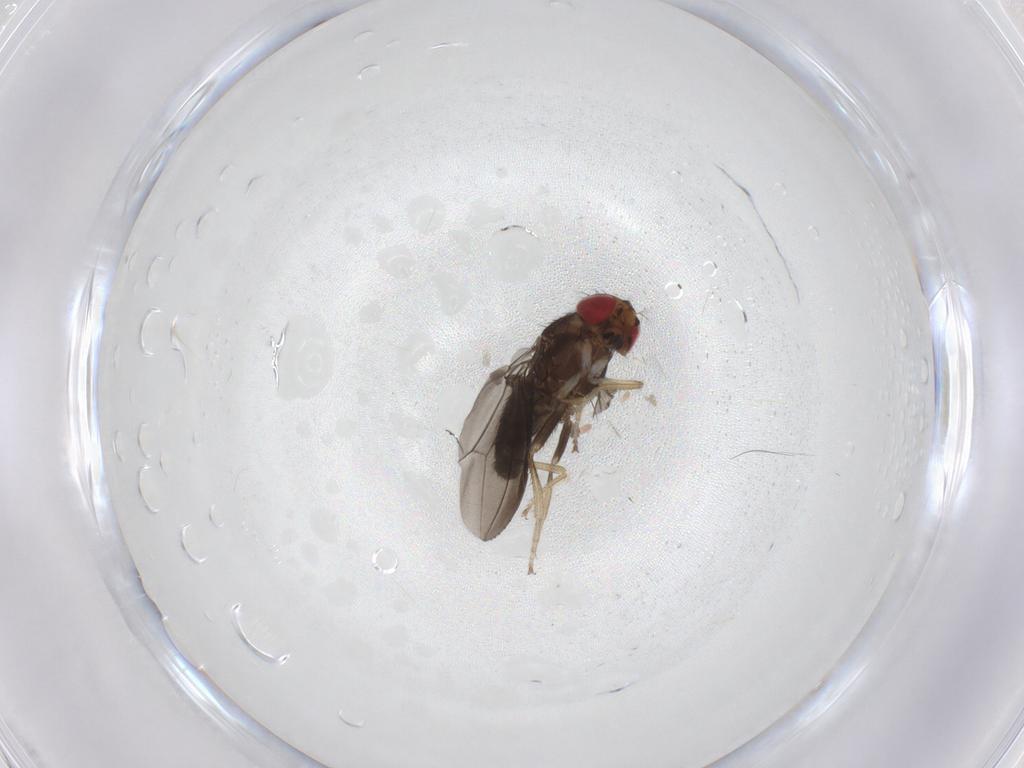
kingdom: Animalia
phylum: Arthropoda
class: Insecta
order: Diptera
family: Drosophilidae
